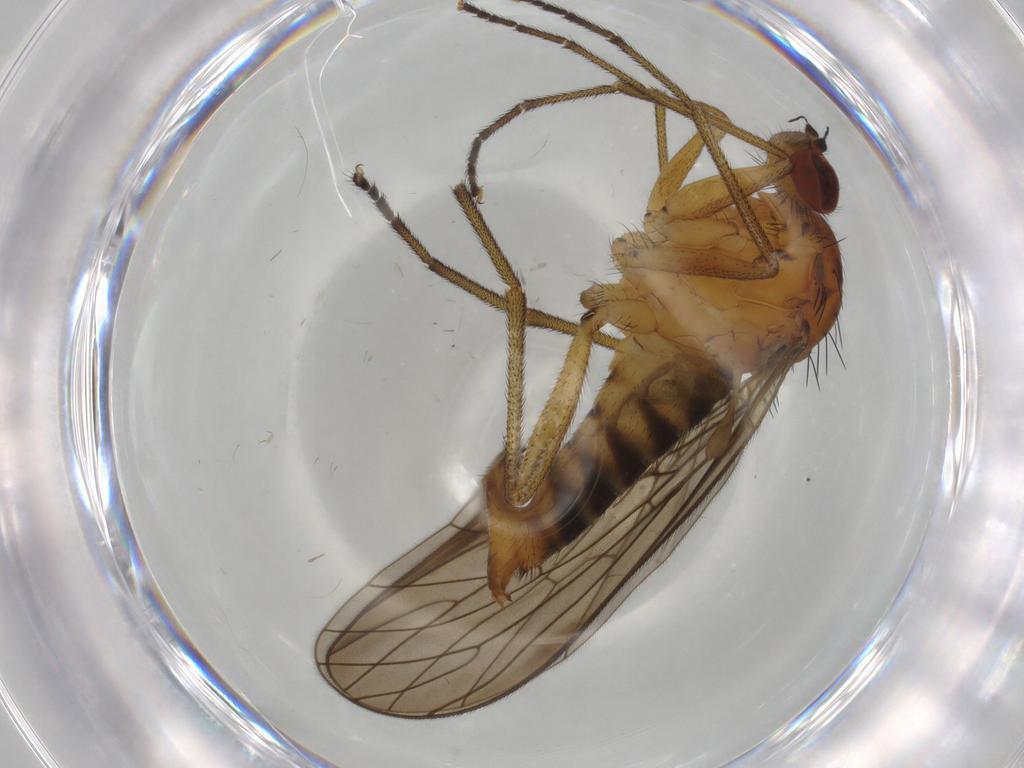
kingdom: Animalia
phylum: Arthropoda
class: Insecta
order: Diptera
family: Brachystomatidae
